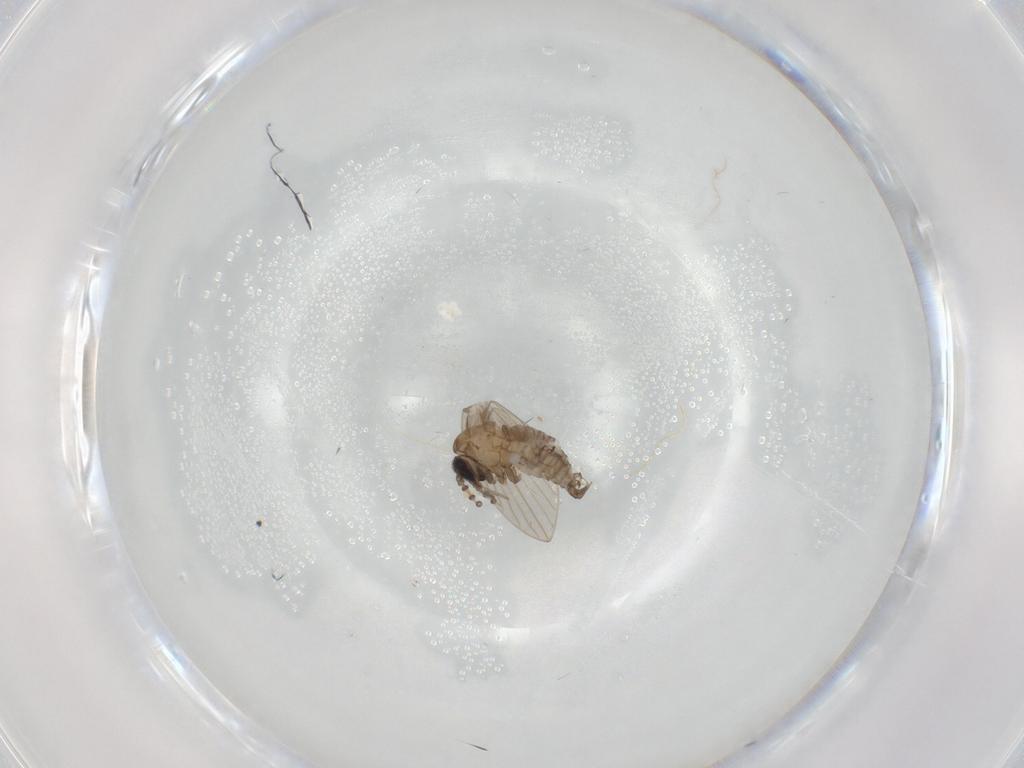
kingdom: Animalia
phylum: Arthropoda
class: Insecta
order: Diptera
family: Psychodidae
